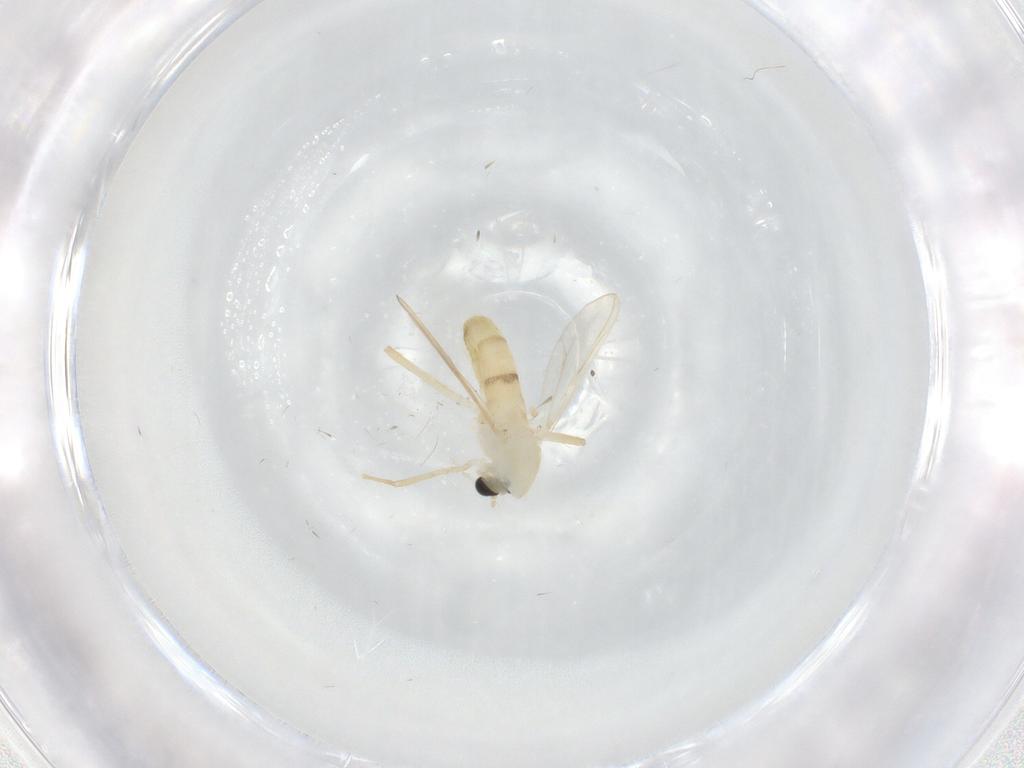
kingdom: Animalia
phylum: Arthropoda
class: Insecta
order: Diptera
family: Chironomidae
